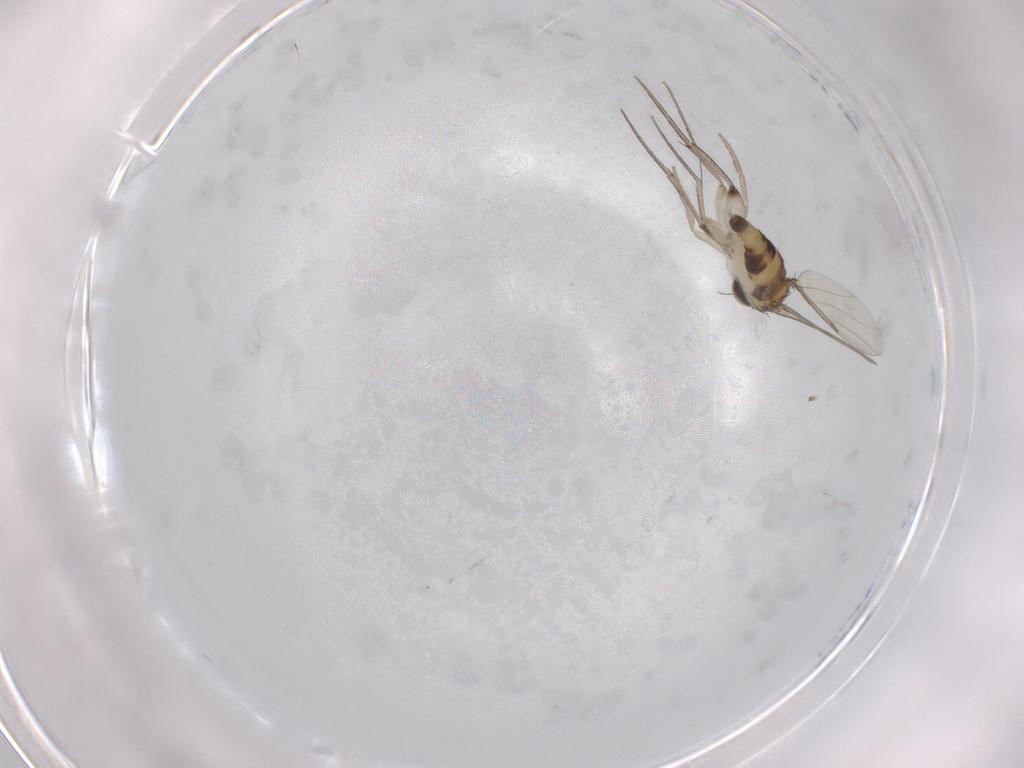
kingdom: Animalia
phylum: Arthropoda
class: Insecta
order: Diptera
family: Phoridae
